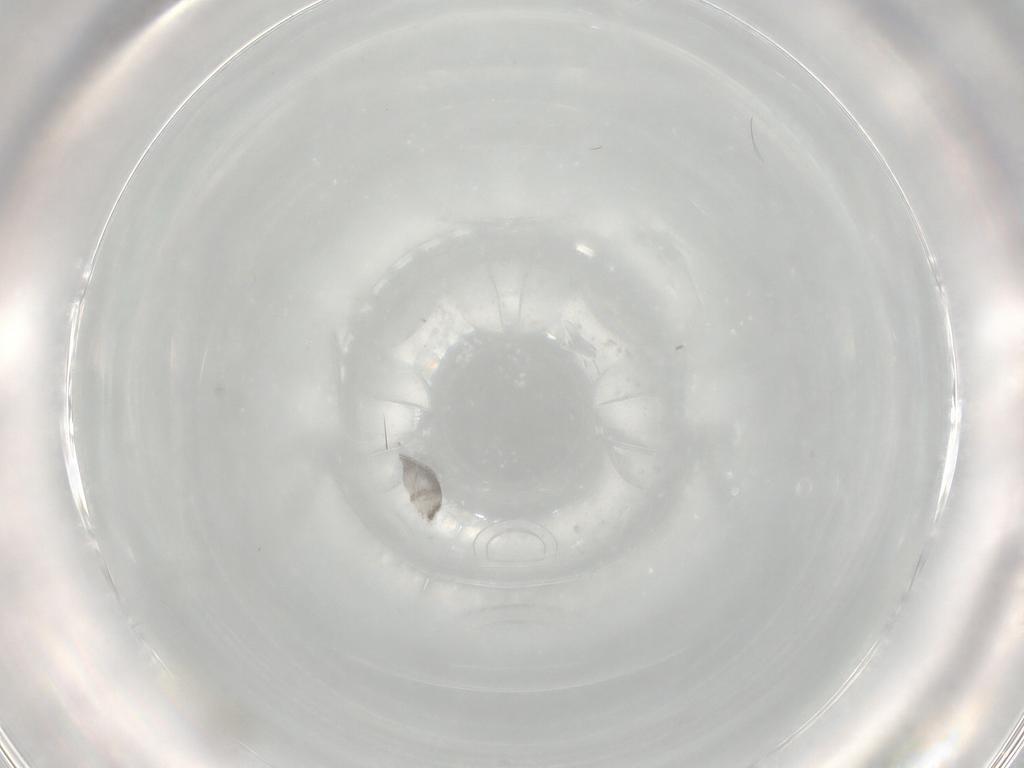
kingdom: Animalia
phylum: Arthropoda
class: Insecta
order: Diptera
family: Sciaridae
